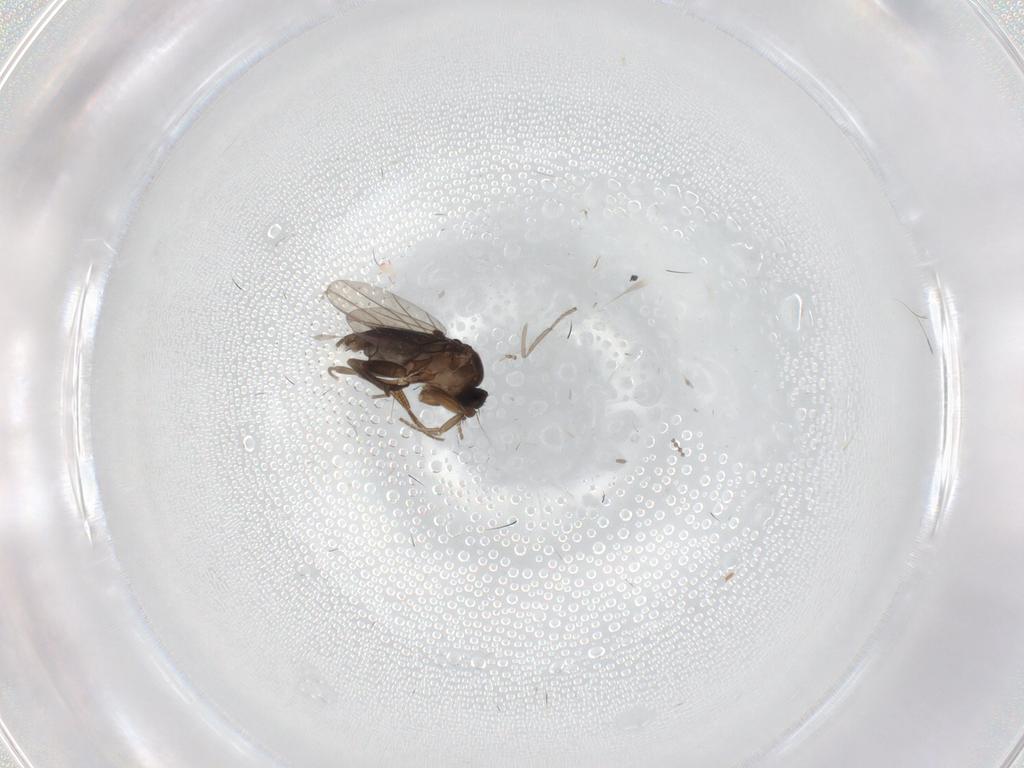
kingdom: Animalia
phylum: Arthropoda
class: Insecta
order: Diptera
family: Psychodidae
